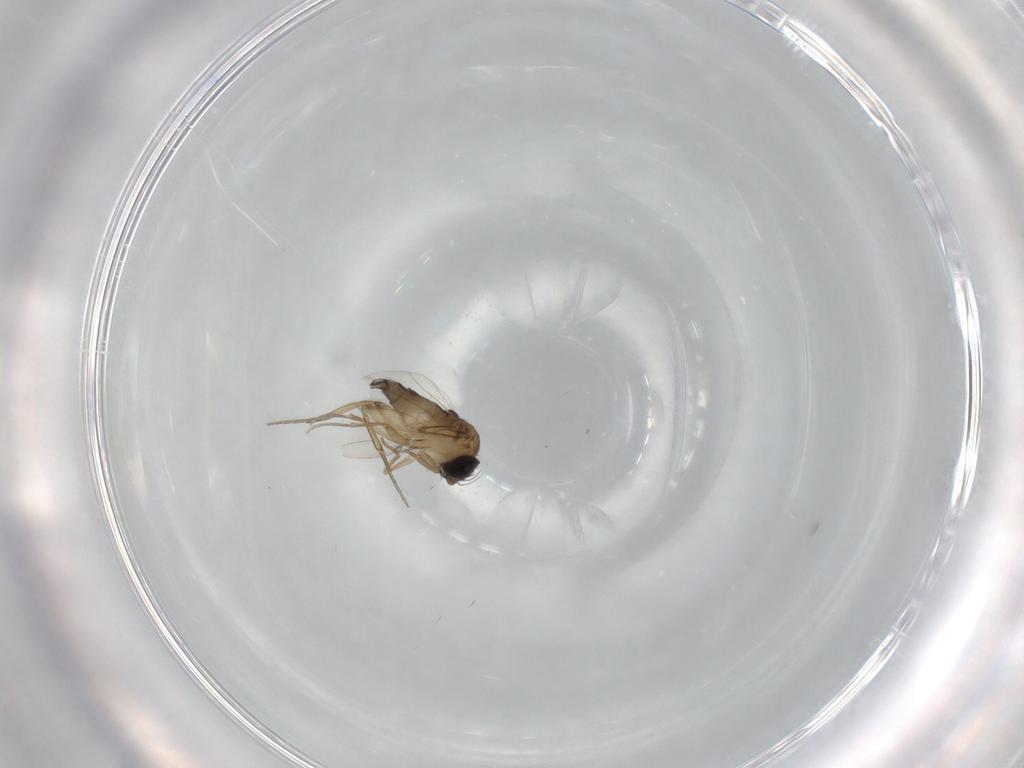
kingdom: Animalia
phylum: Arthropoda
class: Insecta
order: Diptera
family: Phoridae
